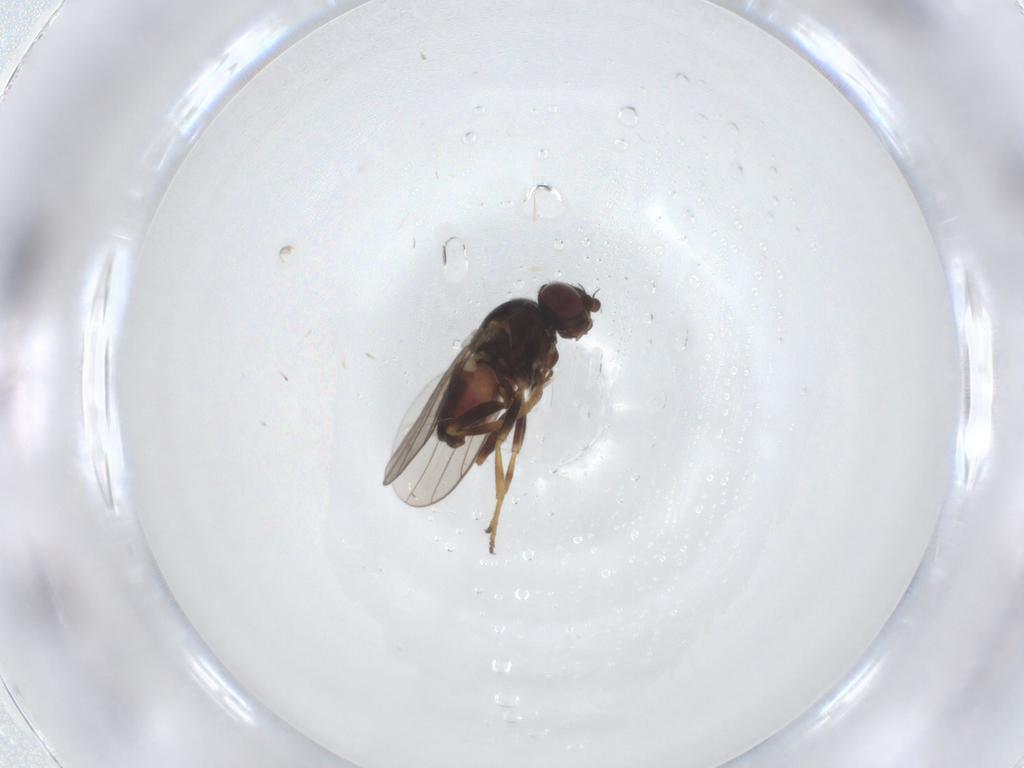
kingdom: Animalia
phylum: Arthropoda
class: Insecta
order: Diptera
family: Chloropidae
